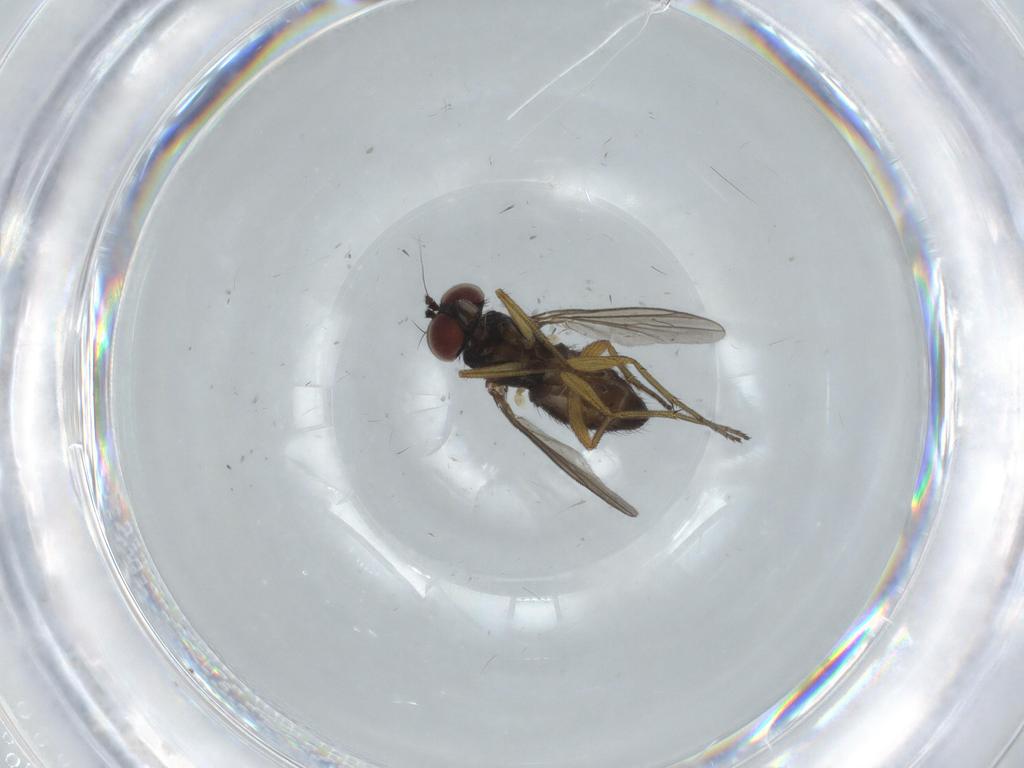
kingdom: Animalia
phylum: Arthropoda
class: Insecta
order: Diptera
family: Dolichopodidae
